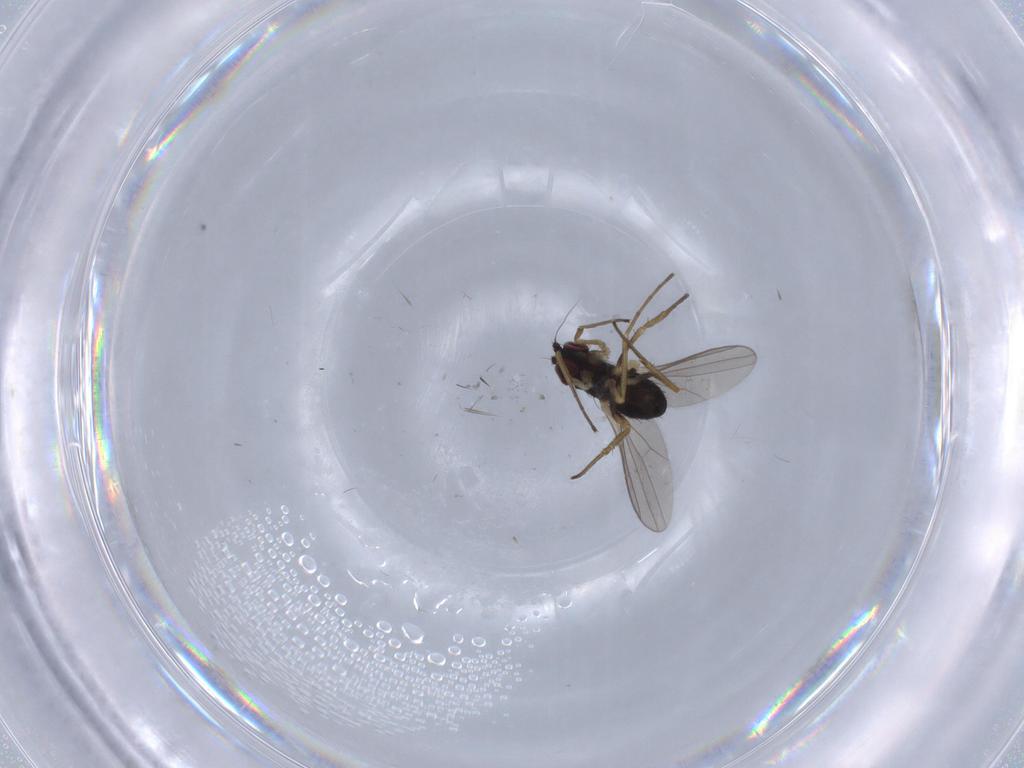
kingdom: Animalia
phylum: Arthropoda
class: Insecta
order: Diptera
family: Dolichopodidae
